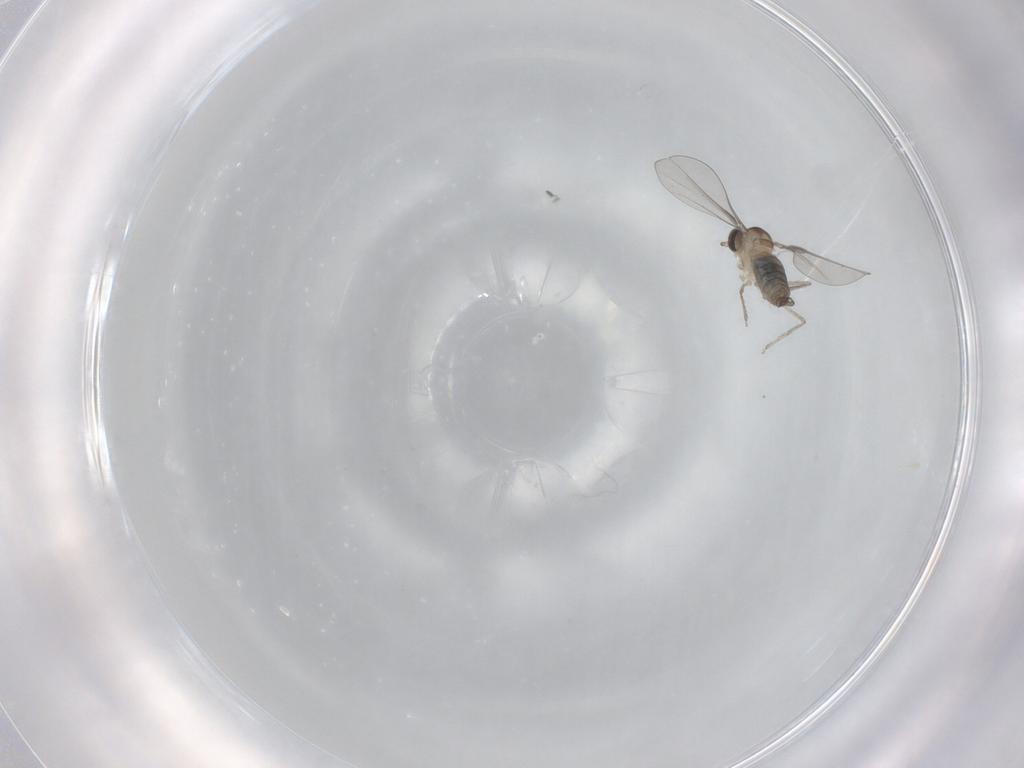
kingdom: Animalia
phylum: Arthropoda
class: Insecta
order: Diptera
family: Cecidomyiidae
